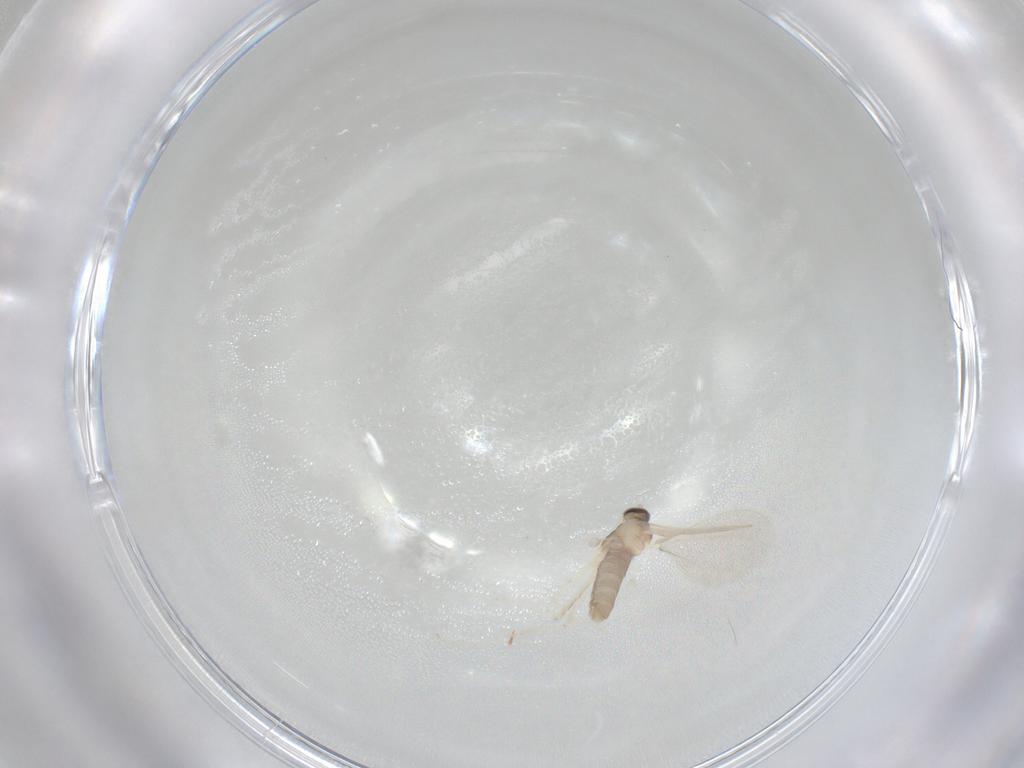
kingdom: Animalia
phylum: Arthropoda
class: Insecta
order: Diptera
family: Cecidomyiidae
